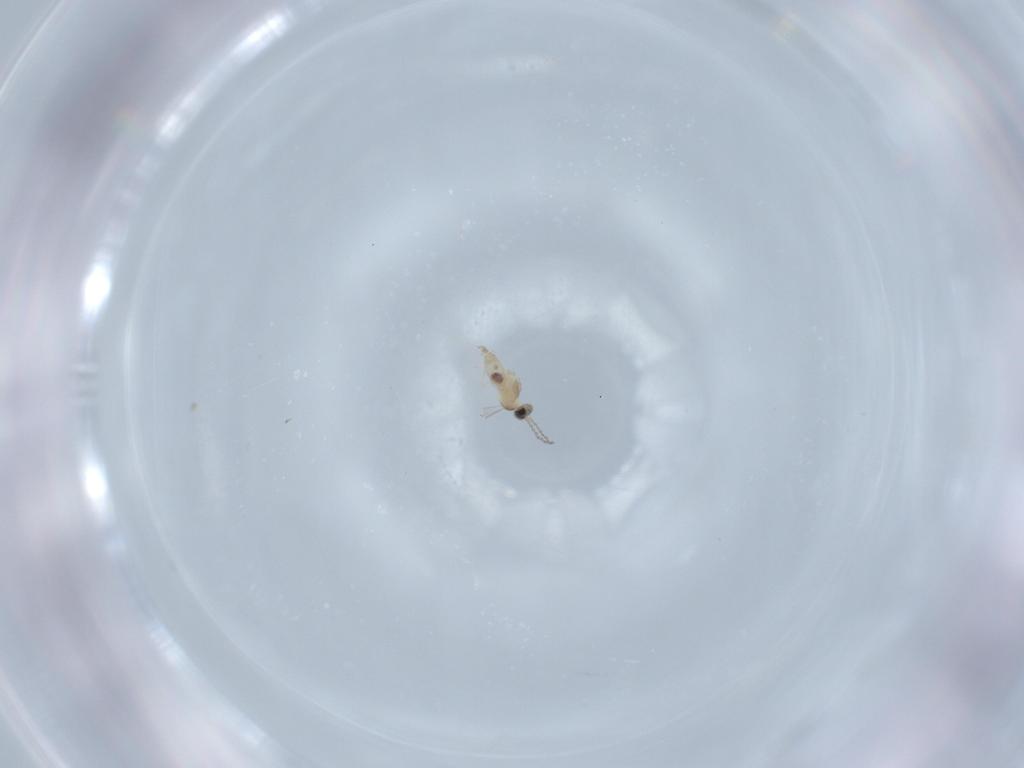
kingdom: Animalia
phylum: Arthropoda
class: Insecta
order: Diptera
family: Cecidomyiidae
